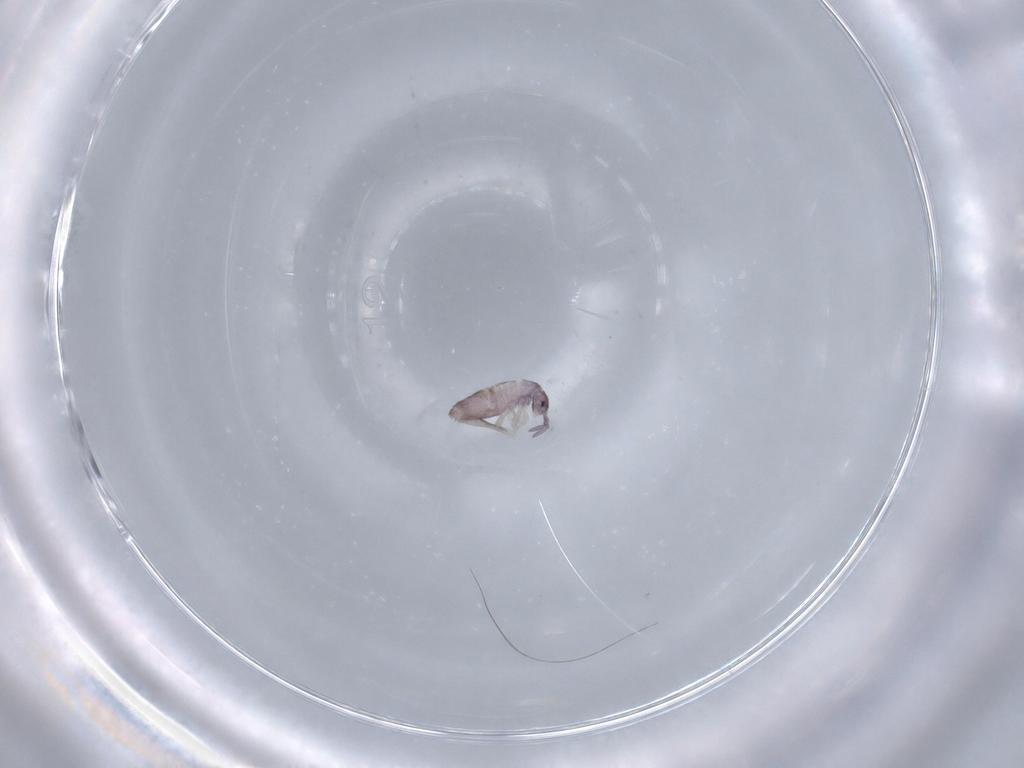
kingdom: Animalia
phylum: Arthropoda
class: Collembola
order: Entomobryomorpha
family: Entomobryidae
